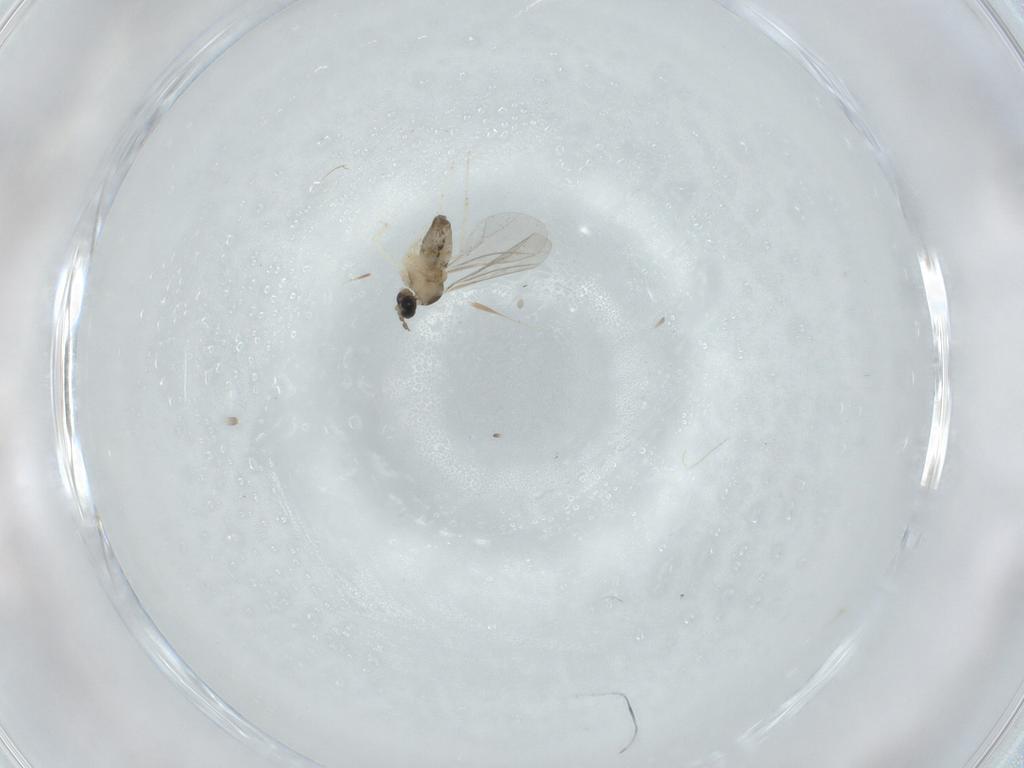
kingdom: Animalia
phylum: Arthropoda
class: Insecta
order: Diptera
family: Cecidomyiidae
